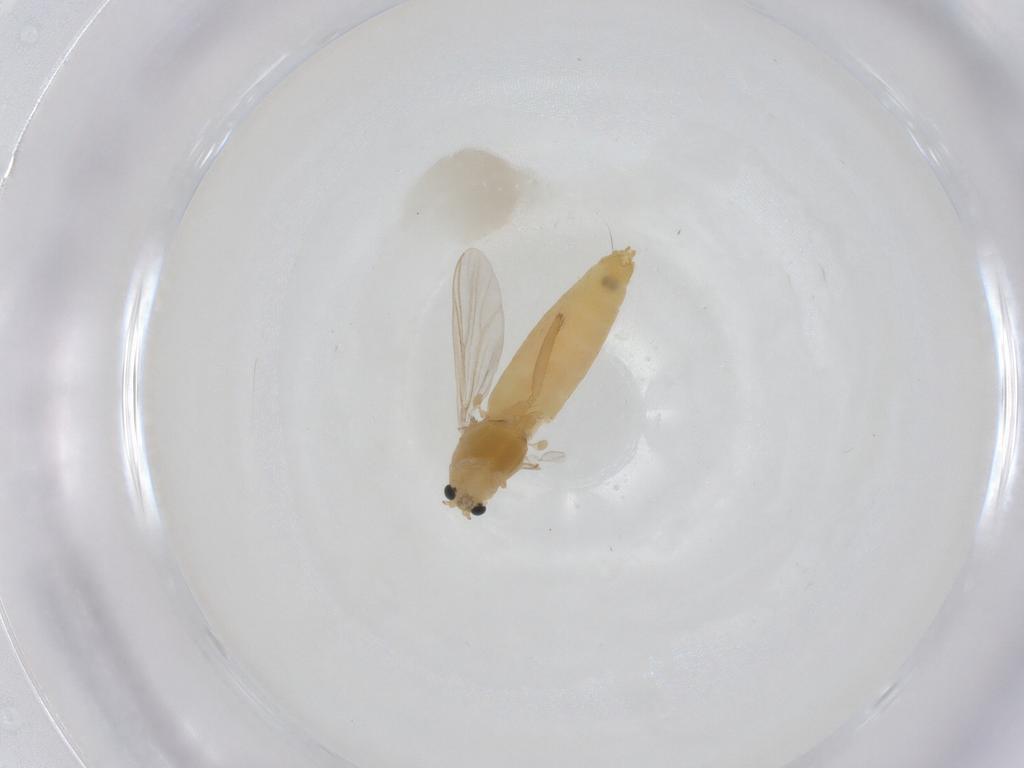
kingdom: Animalia
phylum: Arthropoda
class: Insecta
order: Diptera
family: Chironomidae
